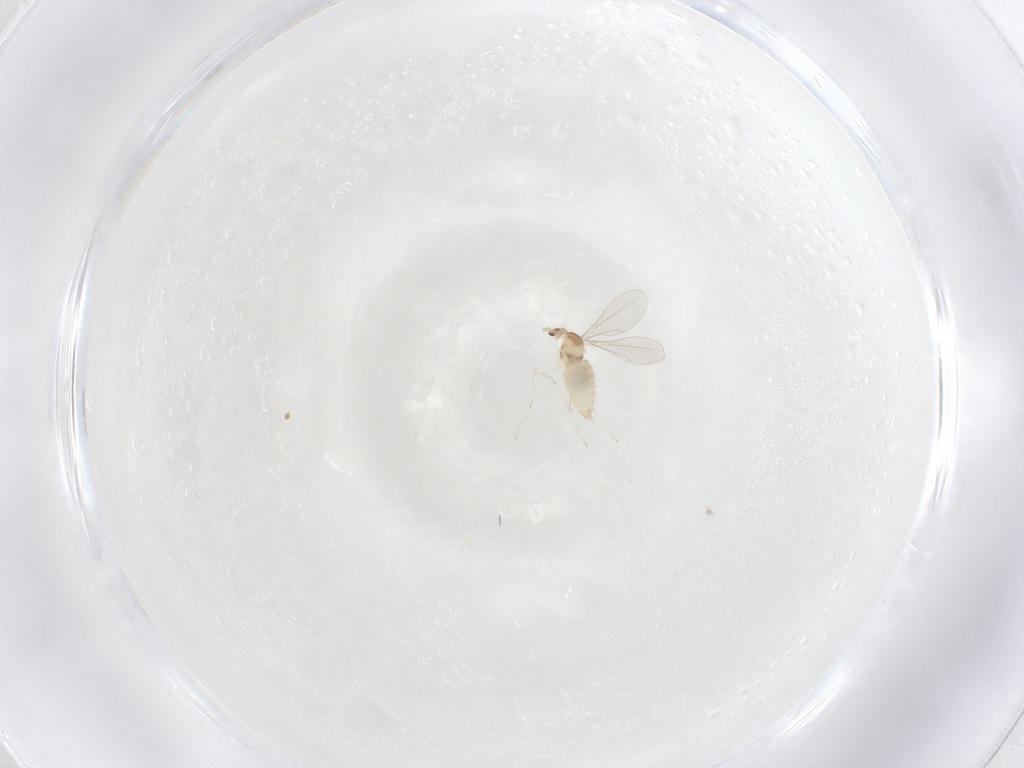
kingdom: Animalia
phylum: Arthropoda
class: Insecta
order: Diptera
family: Cecidomyiidae
